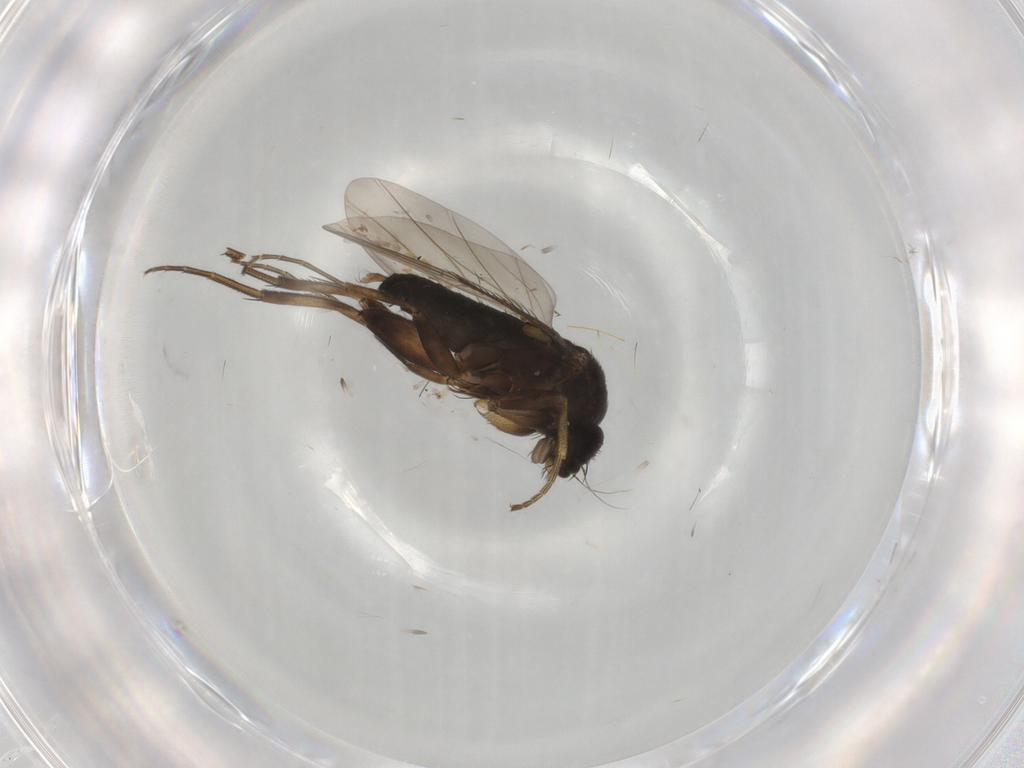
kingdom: Animalia
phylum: Arthropoda
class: Insecta
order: Diptera
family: Phoridae
